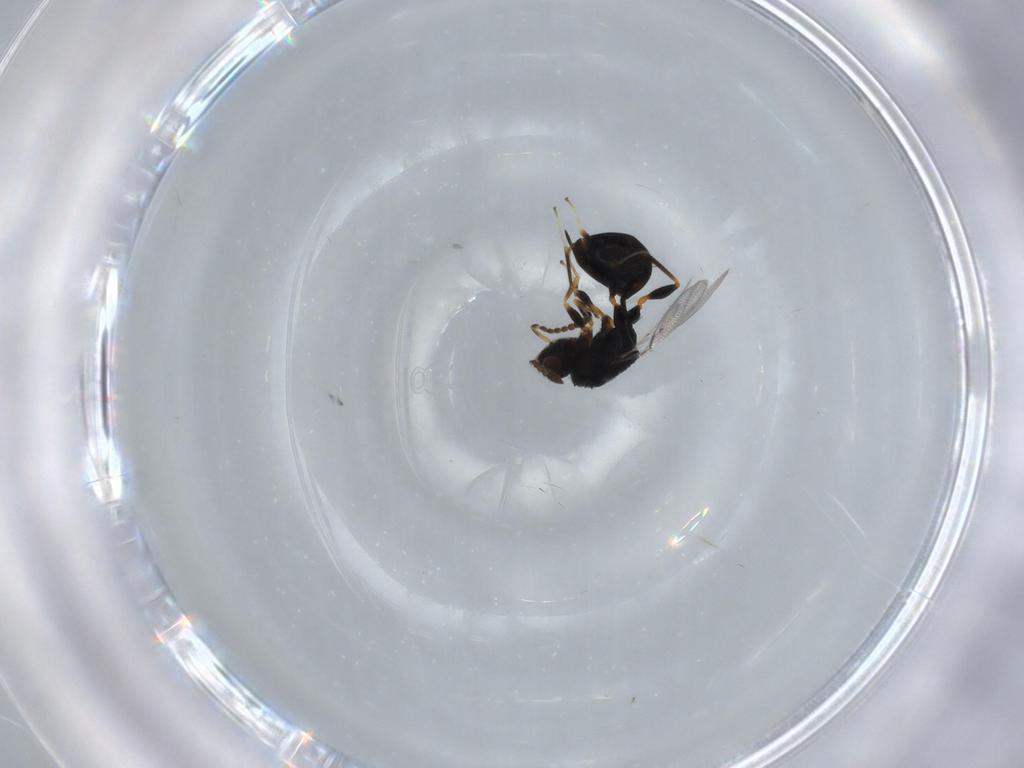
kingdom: Animalia
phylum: Arthropoda
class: Insecta
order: Hymenoptera
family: Eurytomidae
